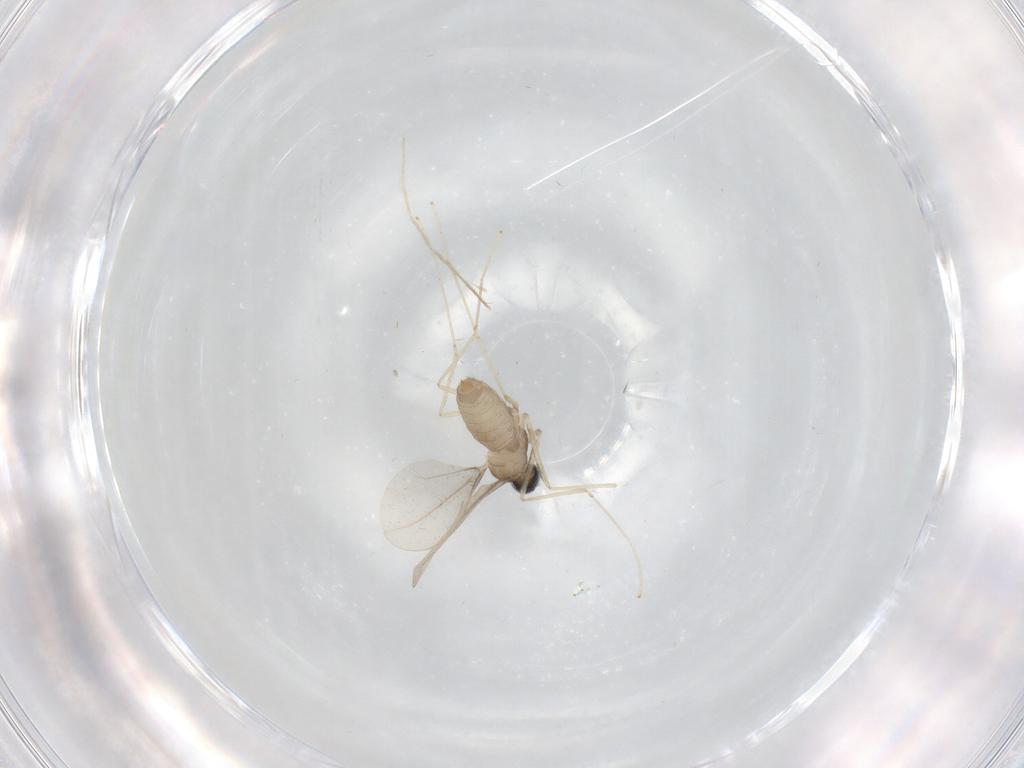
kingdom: Animalia
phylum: Arthropoda
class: Insecta
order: Diptera
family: Cecidomyiidae
